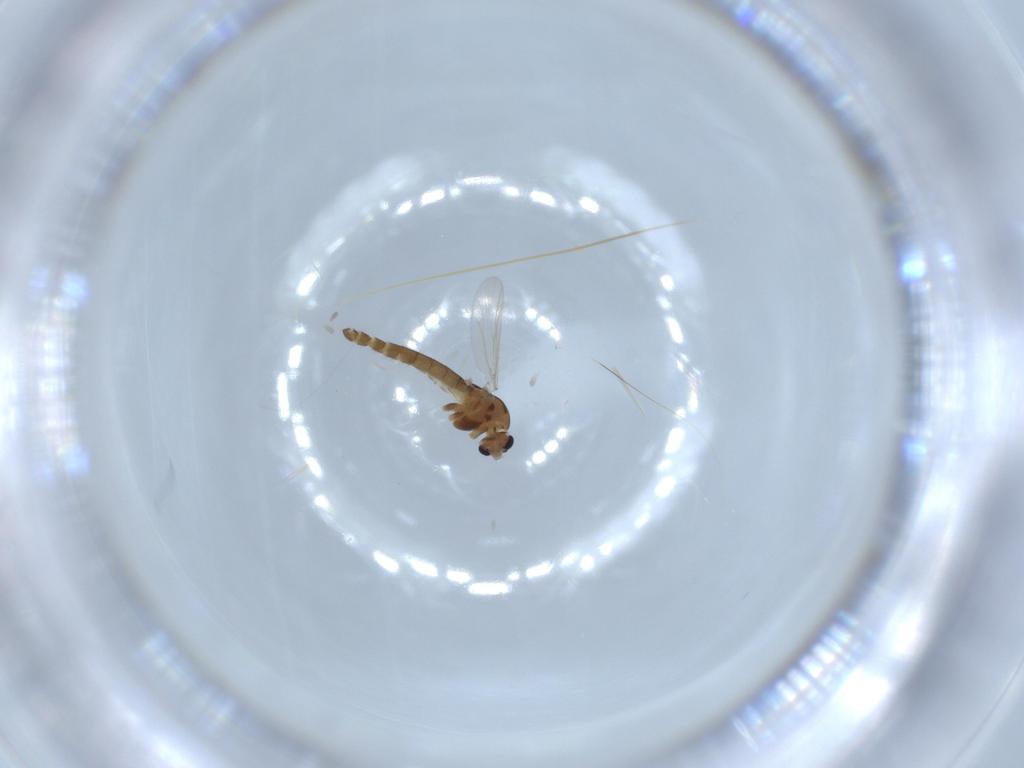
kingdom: Animalia
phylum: Arthropoda
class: Insecta
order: Diptera
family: Chironomidae
